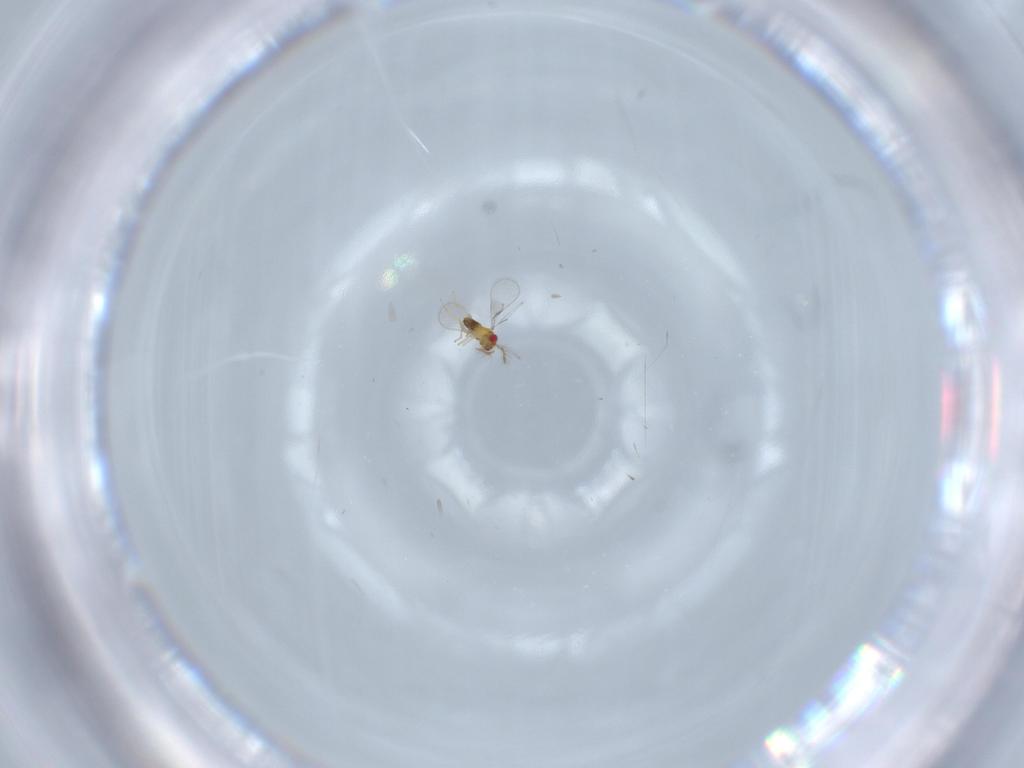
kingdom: Animalia
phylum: Arthropoda
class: Insecta
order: Hymenoptera
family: Trichogrammatidae
